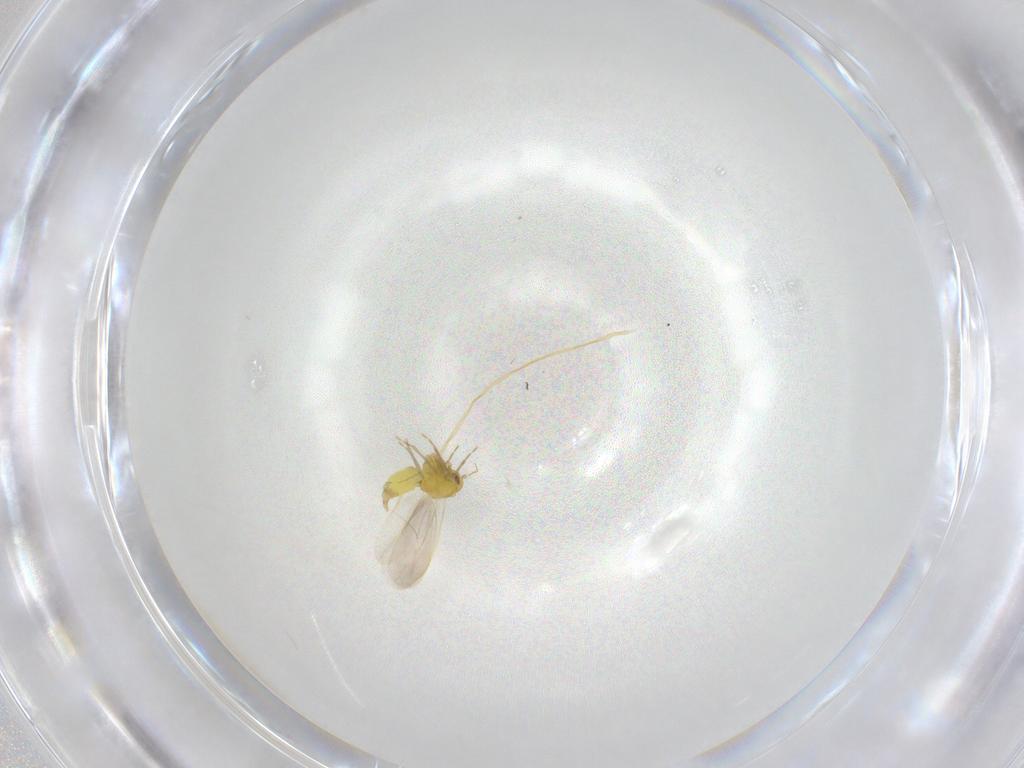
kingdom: Animalia
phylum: Arthropoda
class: Insecta
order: Hemiptera
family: Aleyrodidae
